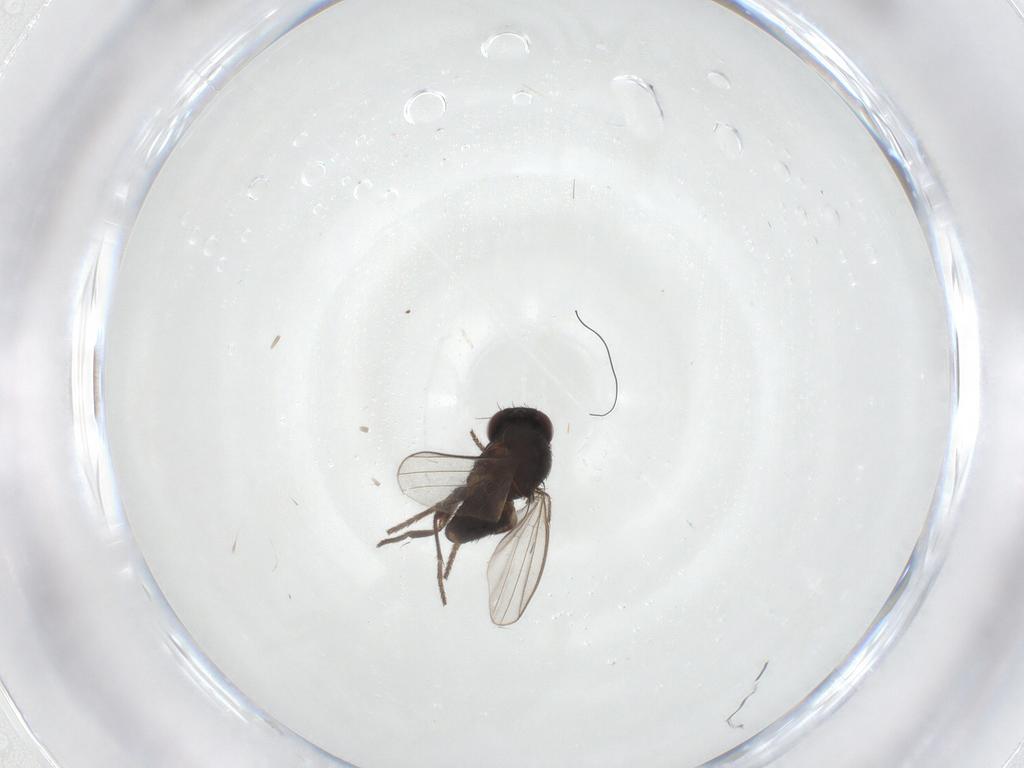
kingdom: Animalia
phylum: Arthropoda
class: Insecta
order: Diptera
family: Milichiidae
